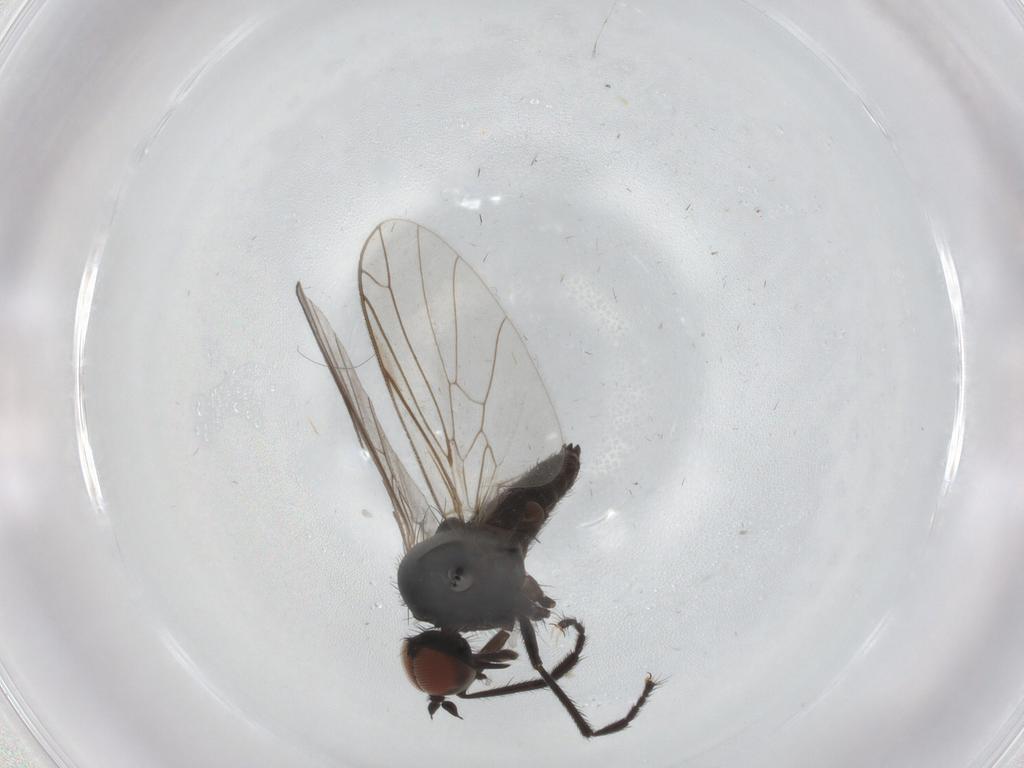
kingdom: Animalia
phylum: Arthropoda
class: Insecta
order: Diptera
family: Empididae
